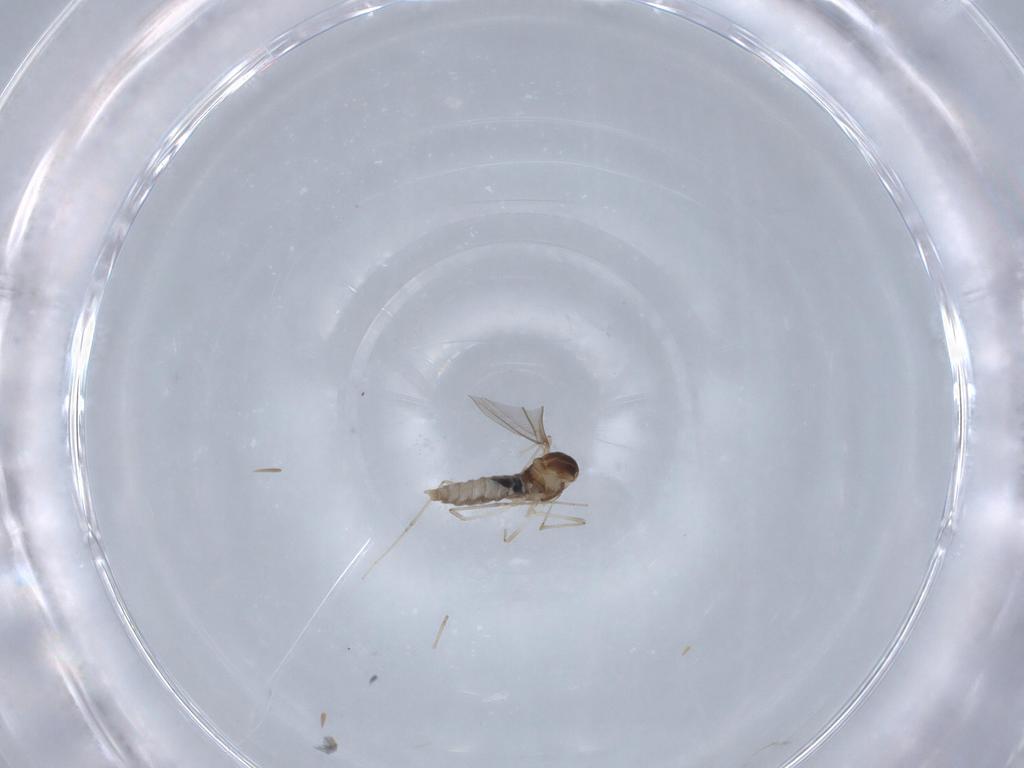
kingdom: Animalia
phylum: Arthropoda
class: Insecta
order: Diptera
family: Cecidomyiidae
